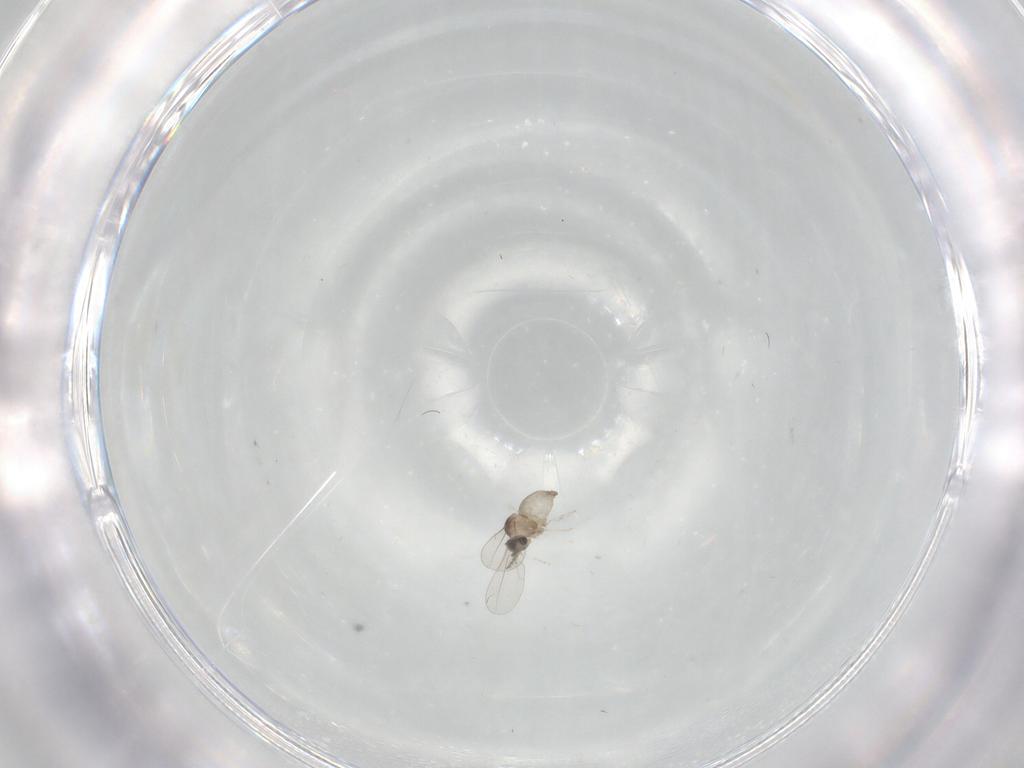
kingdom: Animalia
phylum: Arthropoda
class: Insecta
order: Diptera
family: Cecidomyiidae
